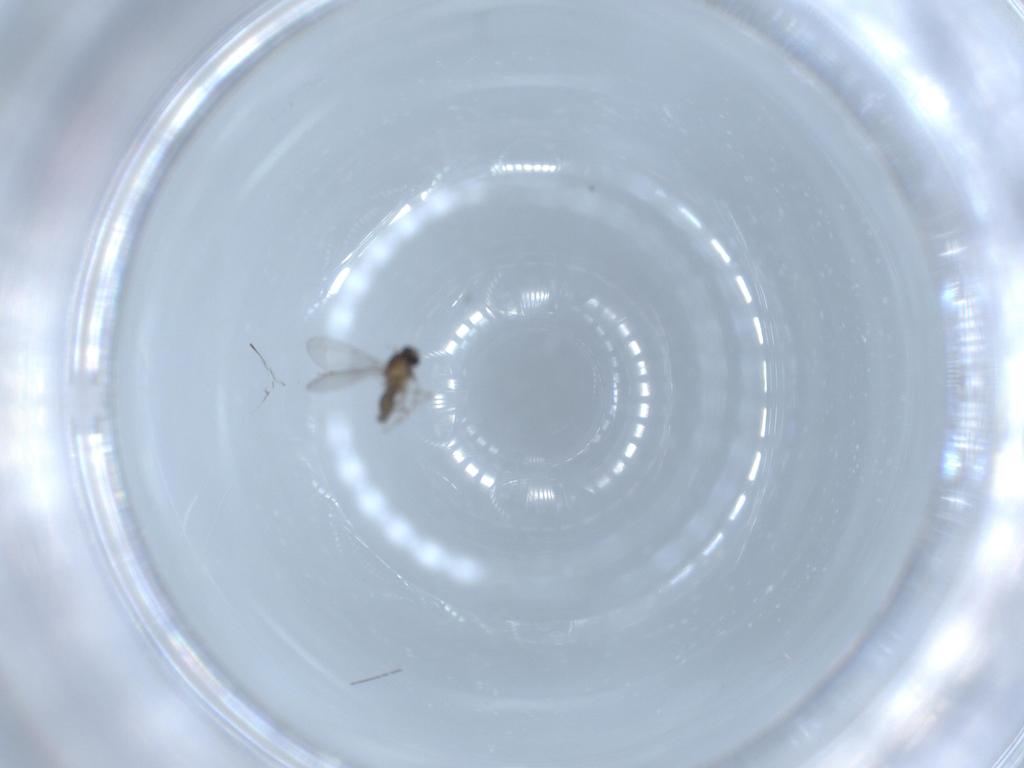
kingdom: Animalia
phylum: Arthropoda
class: Insecta
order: Diptera
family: Cecidomyiidae
